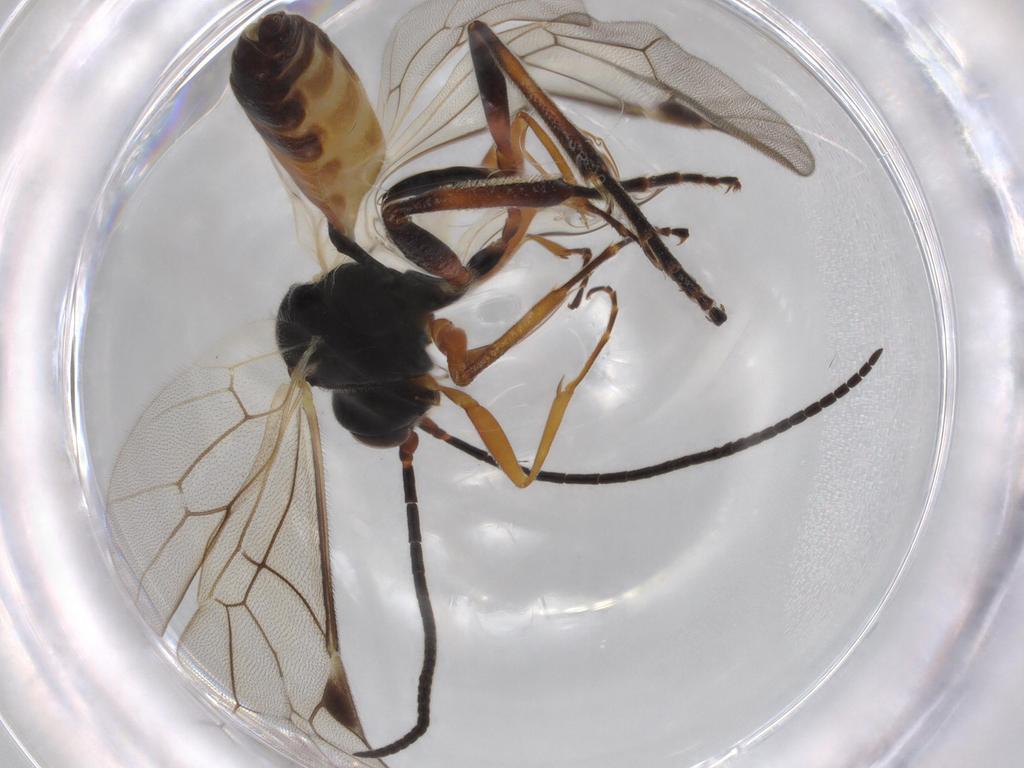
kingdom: Animalia
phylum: Arthropoda
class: Insecta
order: Hymenoptera
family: Ichneumonidae
